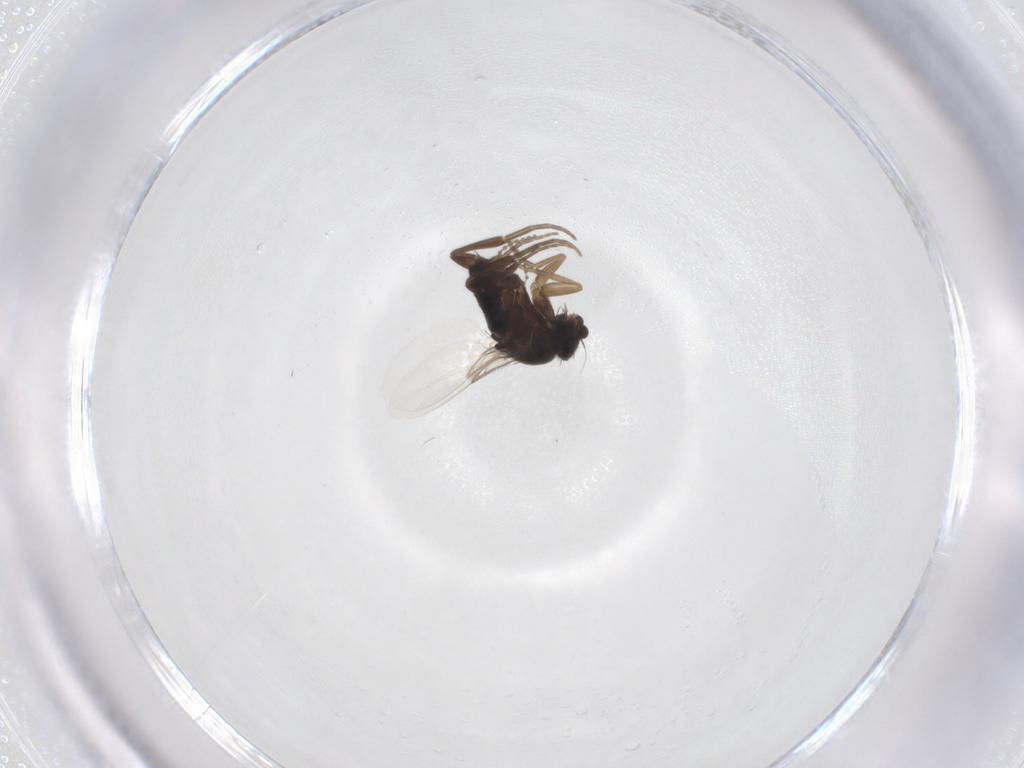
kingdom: Animalia
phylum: Arthropoda
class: Insecta
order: Diptera
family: Phoridae
